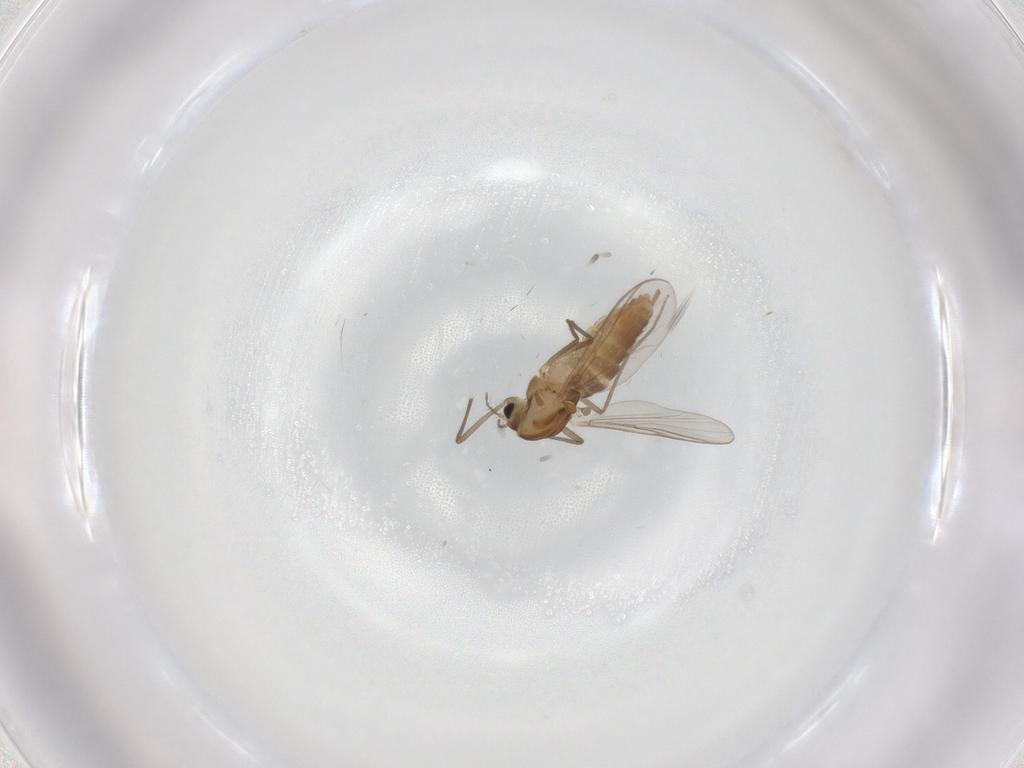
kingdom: Animalia
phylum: Arthropoda
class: Insecta
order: Diptera
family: Chironomidae
